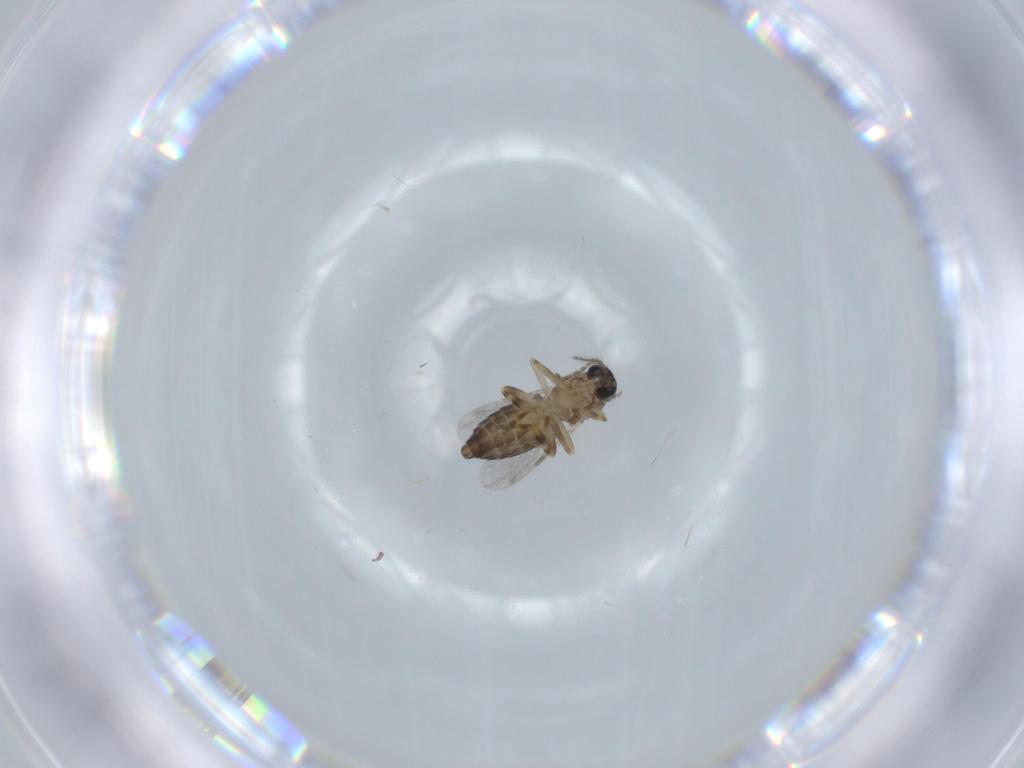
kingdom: Animalia
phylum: Arthropoda
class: Insecta
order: Diptera
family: Ceratopogonidae
